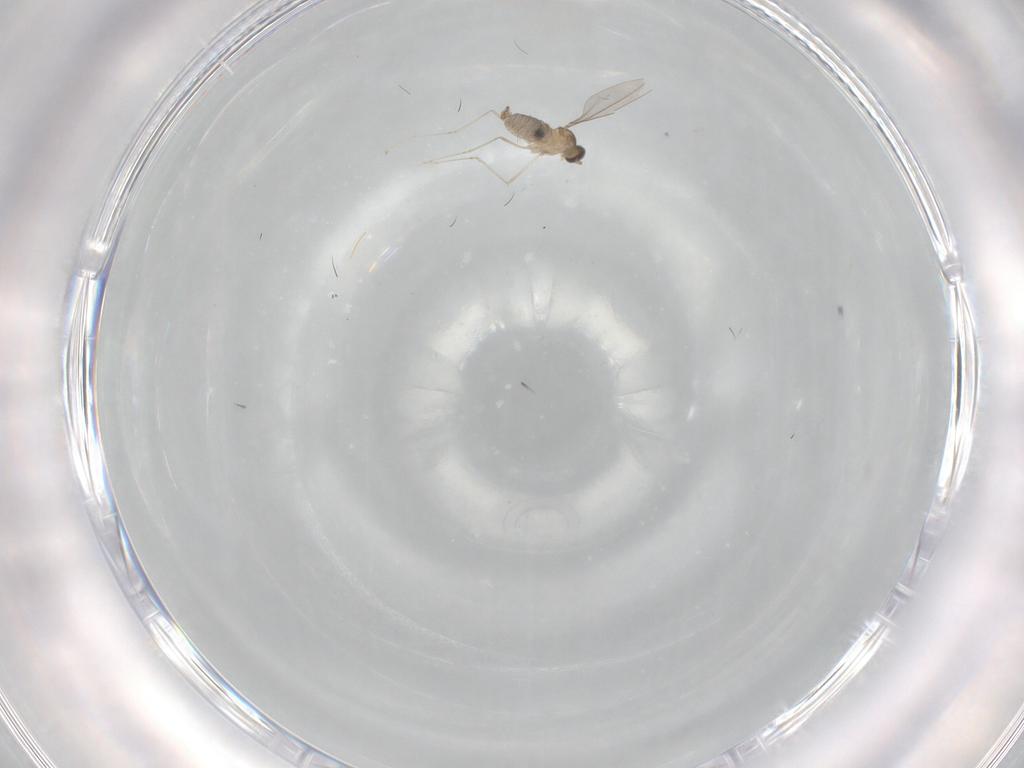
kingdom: Animalia
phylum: Arthropoda
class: Insecta
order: Diptera
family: Cecidomyiidae
